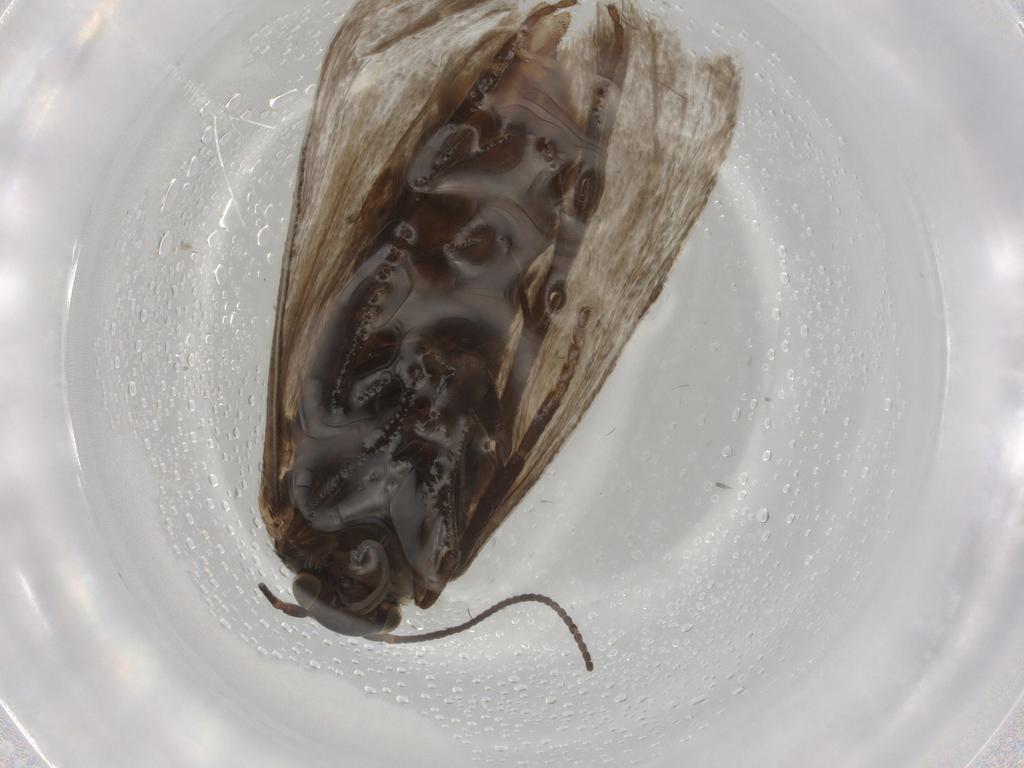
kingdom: Animalia
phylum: Arthropoda
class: Insecta
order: Lepidoptera
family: Tortricidae
